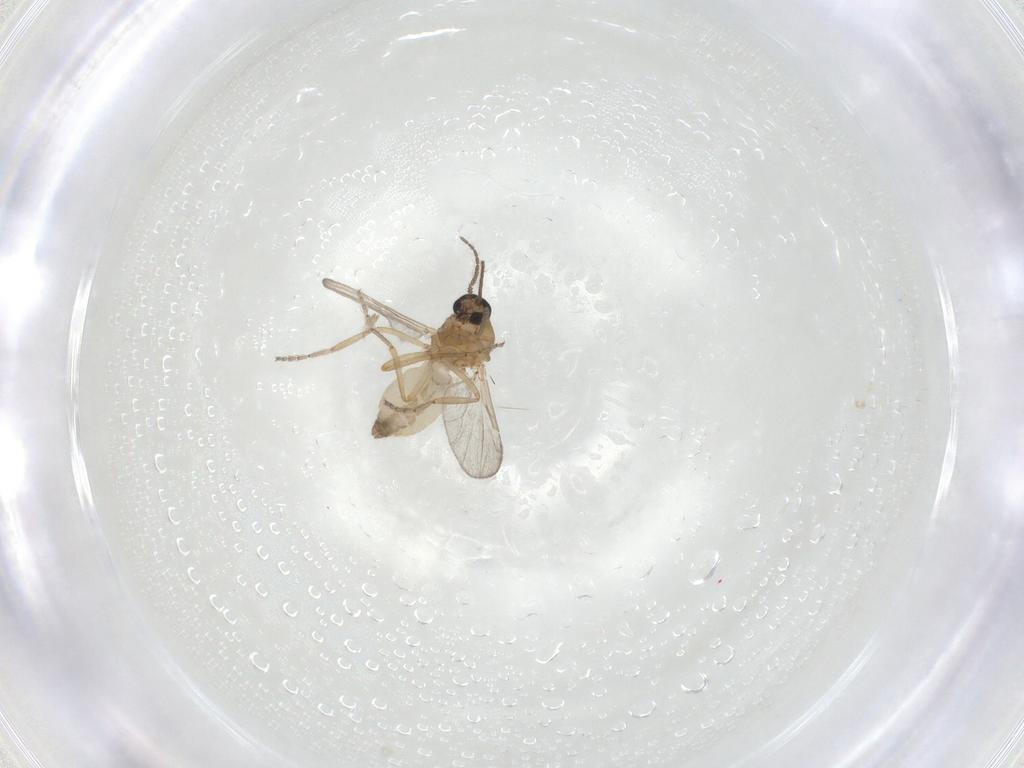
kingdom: Animalia
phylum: Arthropoda
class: Insecta
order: Diptera
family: Ceratopogonidae
